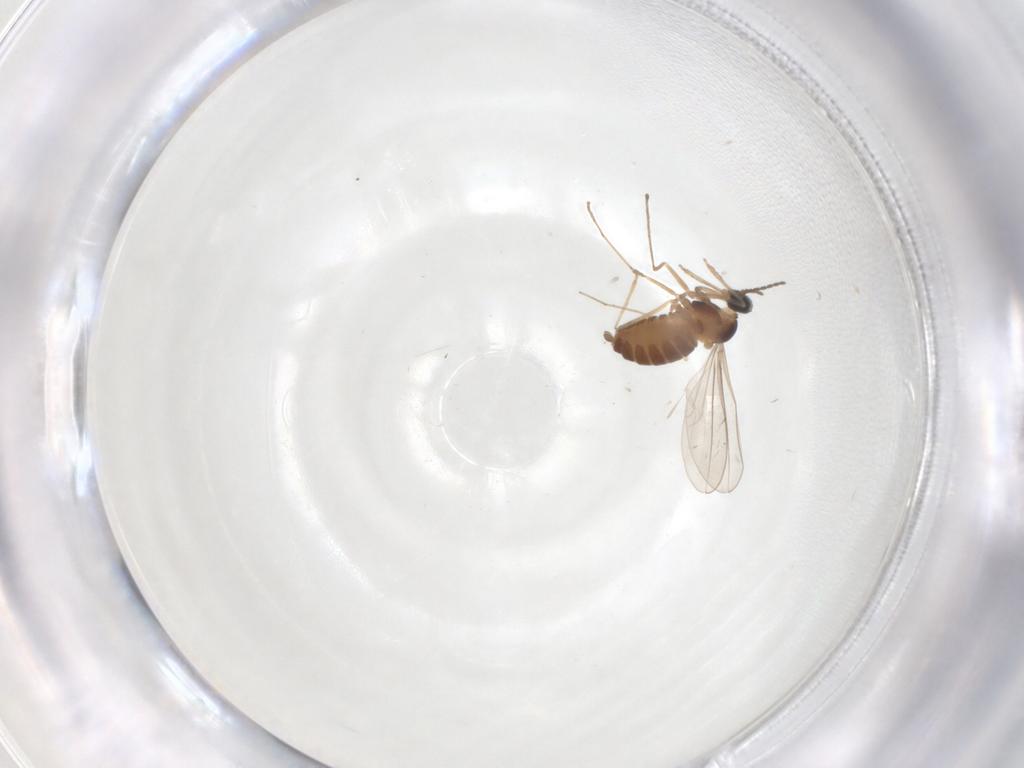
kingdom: Animalia
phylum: Arthropoda
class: Insecta
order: Diptera
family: Cecidomyiidae
